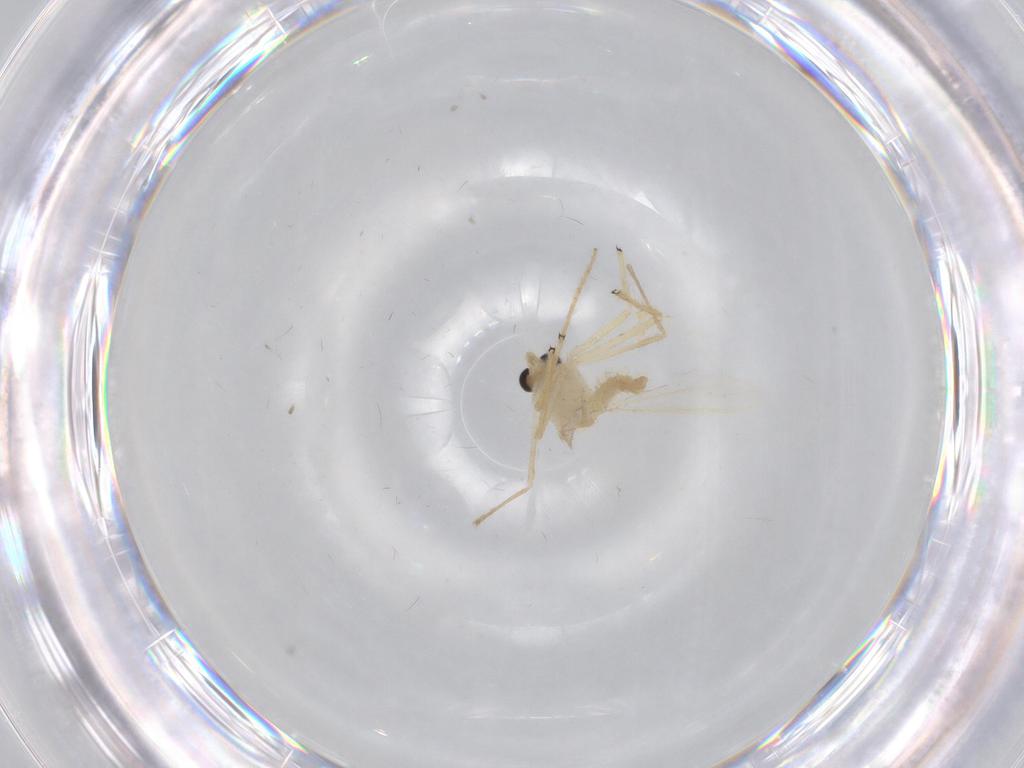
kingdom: Animalia
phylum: Arthropoda
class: Insecta
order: Diptera
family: Chironomidae
